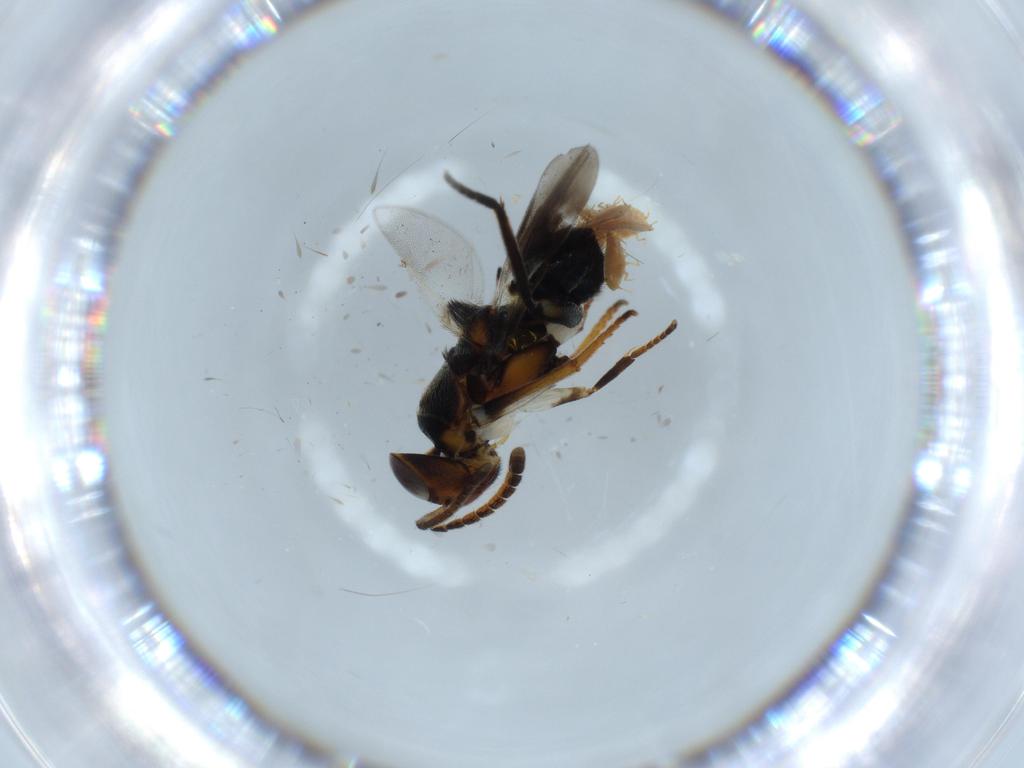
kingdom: Animalia
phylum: Arthropoda
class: Insecta
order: Hymenoptera
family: Encyrtidae
